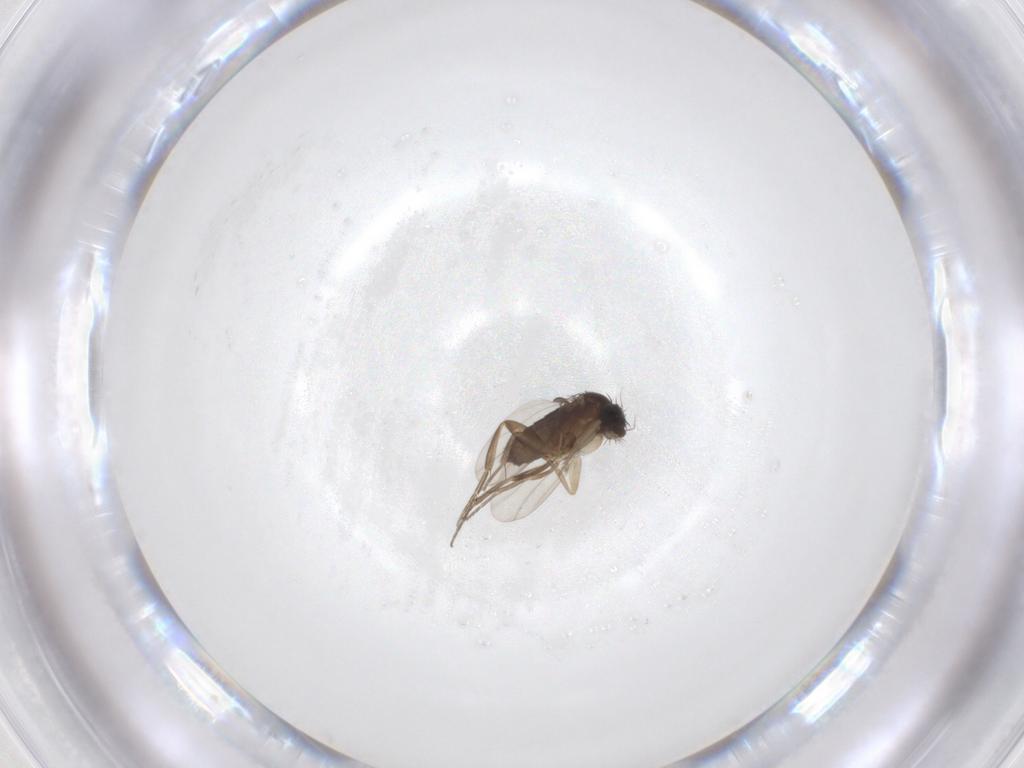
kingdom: Animalia
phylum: Arthropoda
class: Insecta
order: Diptera
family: Phoridae
